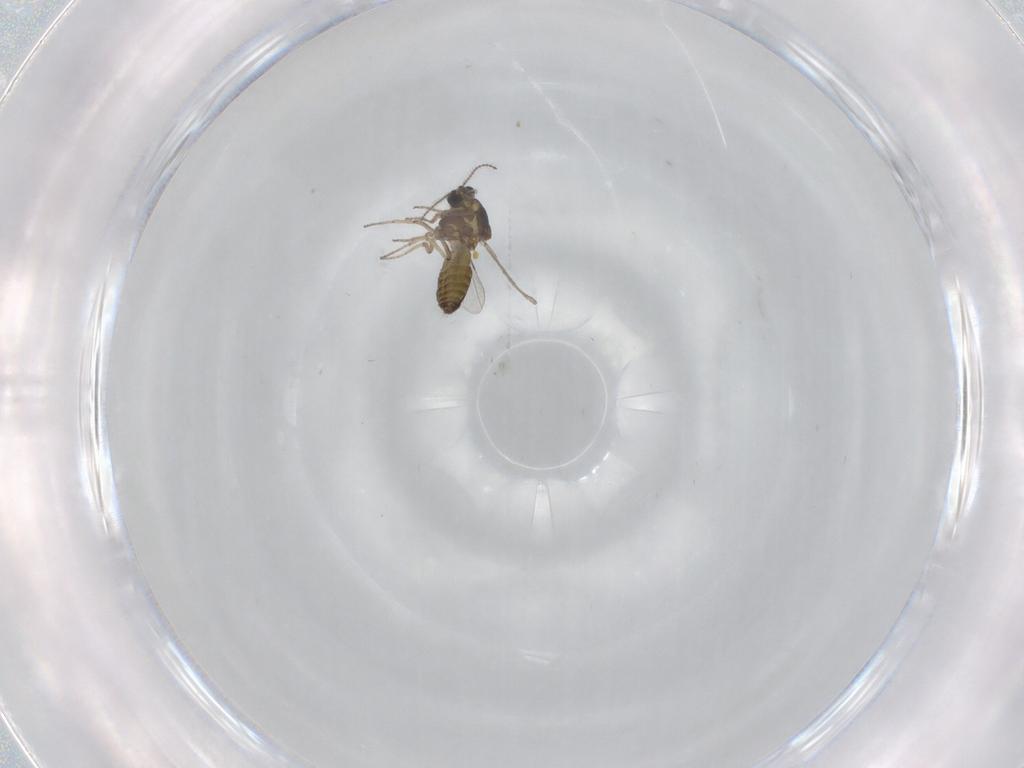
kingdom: Animalia
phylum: Arthropoda
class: Insecta
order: Diptera
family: Ceratopogonidae
